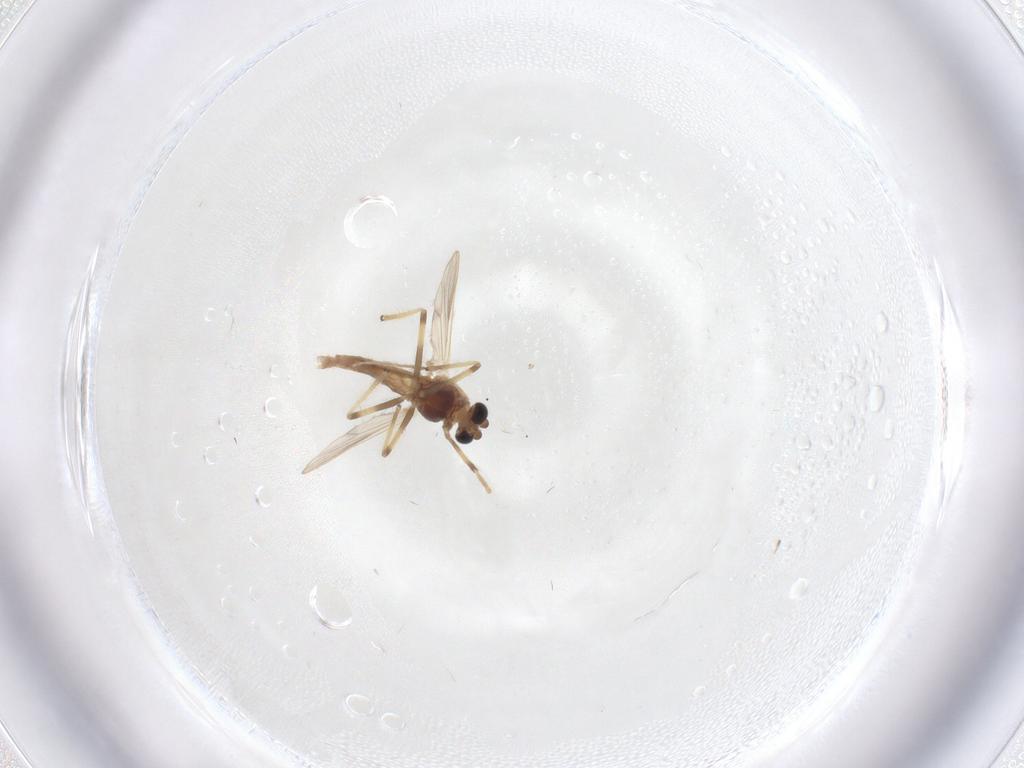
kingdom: Animalia
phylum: Arthropoda
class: Insecta
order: Diptera
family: Chironomidae
